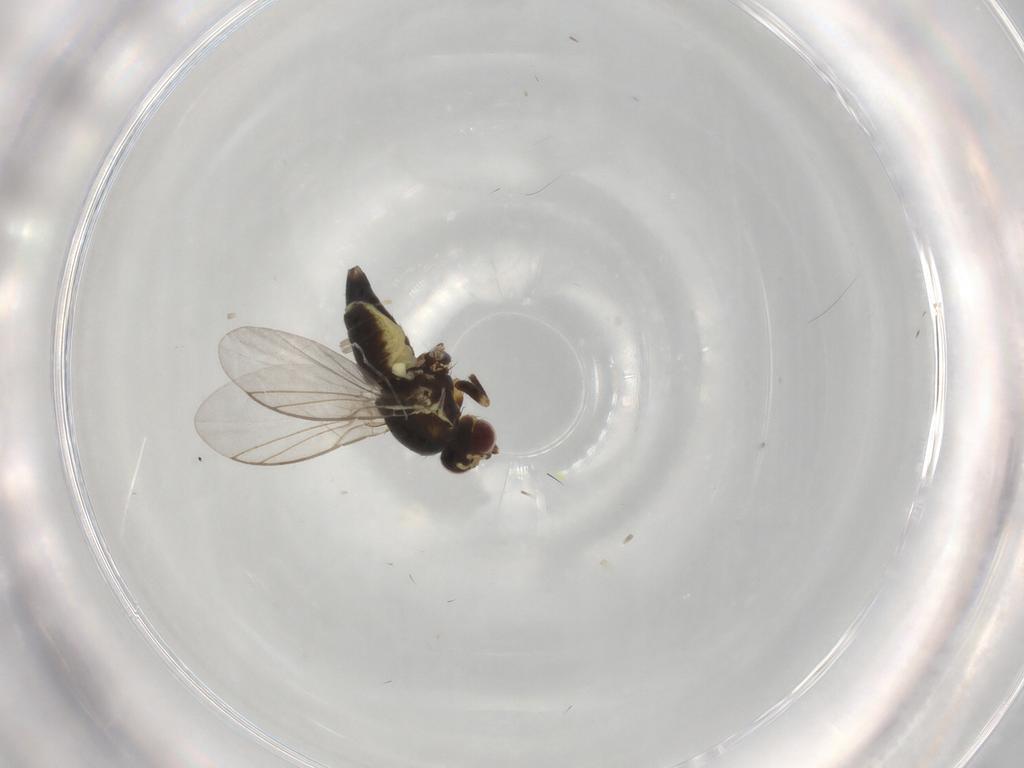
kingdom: Animalia
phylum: Arthropoda
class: Insecta
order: Diptera
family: Agromyzidae
